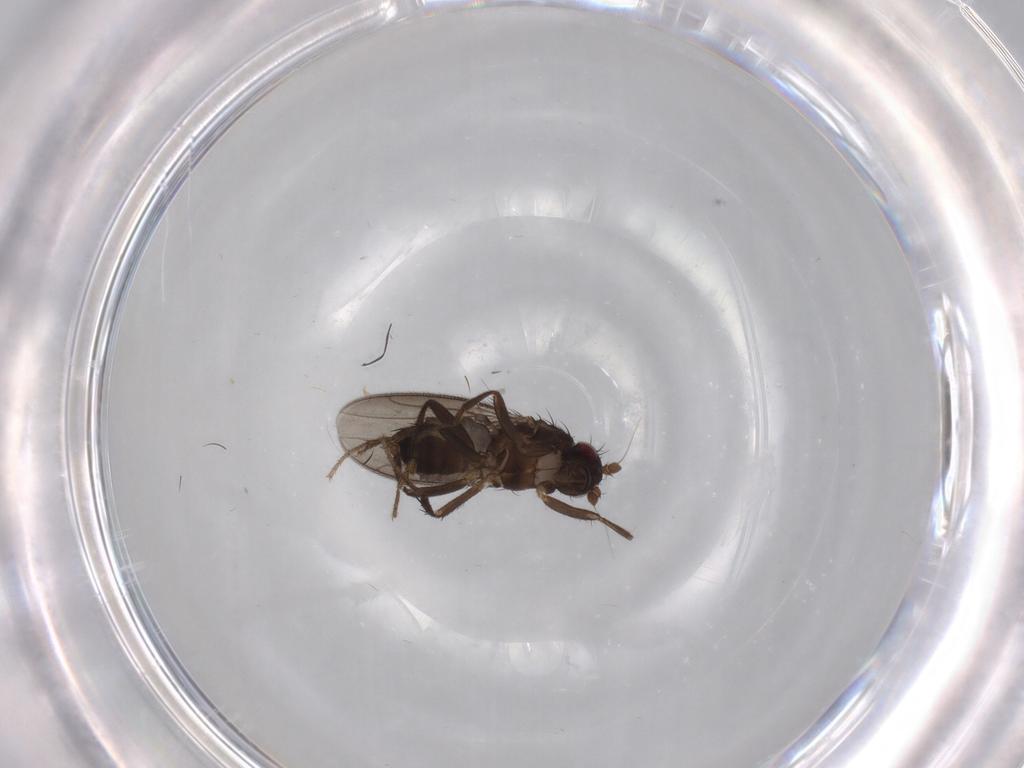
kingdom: Animalia
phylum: Arthropoda
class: Insecta
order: Diptera
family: Sphaeroceridae
